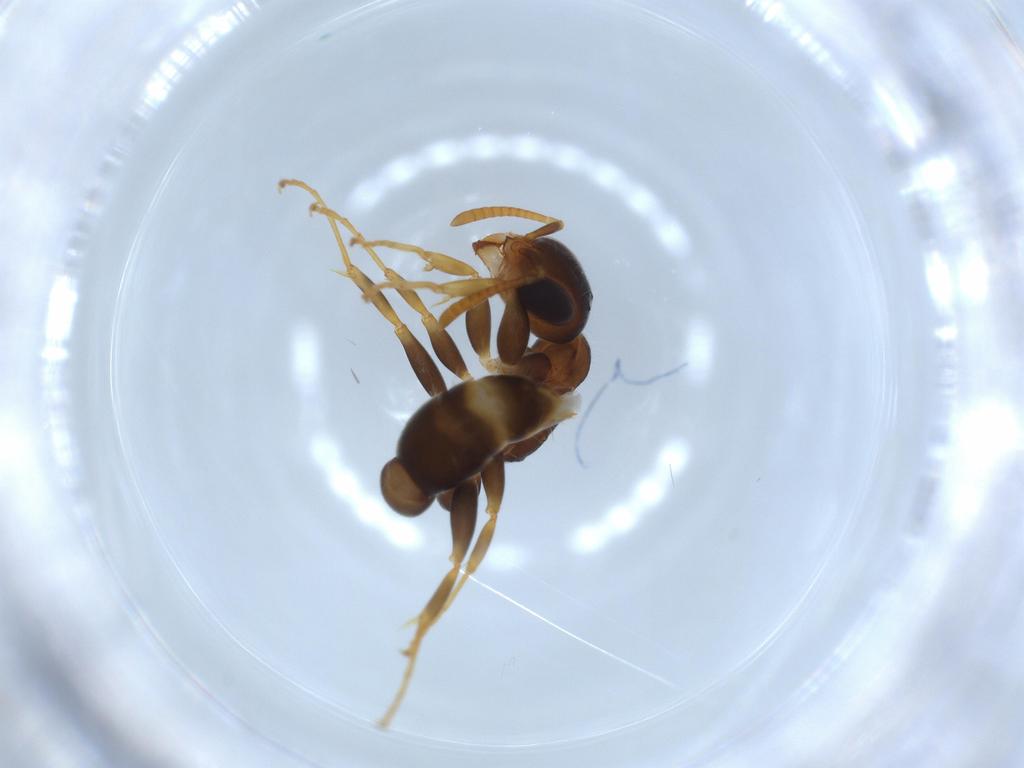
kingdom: Animalia
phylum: Arthropoda
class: Insecta
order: Hymenoptera
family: Formicidae
